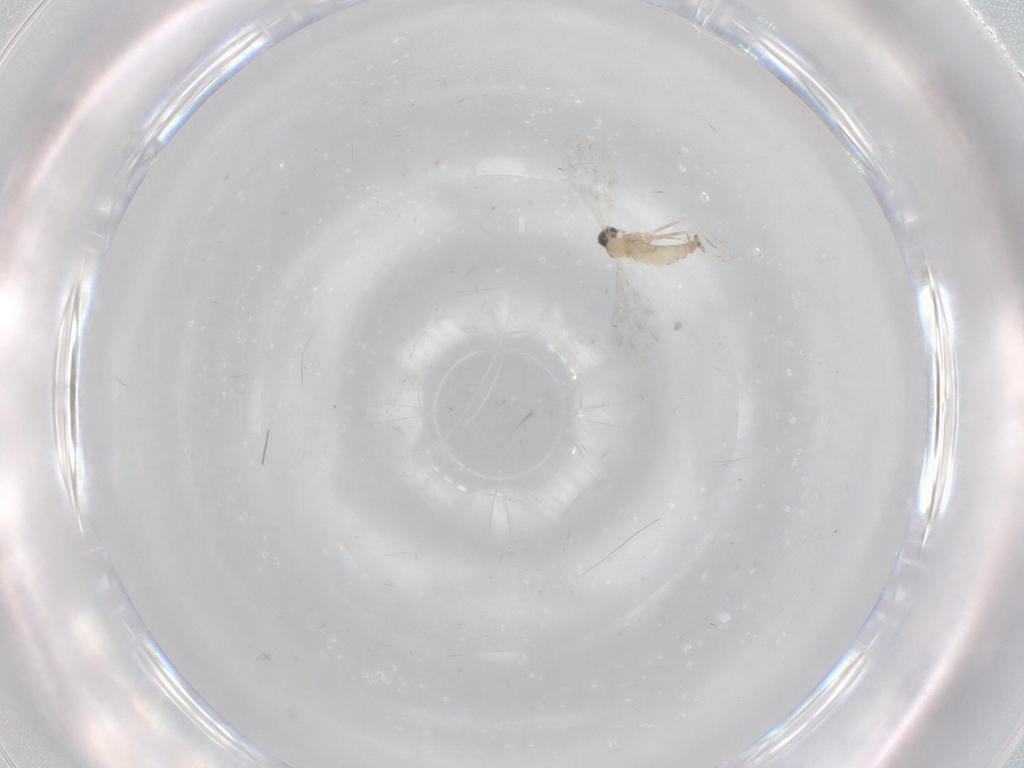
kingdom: Animalia
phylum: Arthropoda
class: Insecta
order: Diptera
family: Cecidomyiidae
